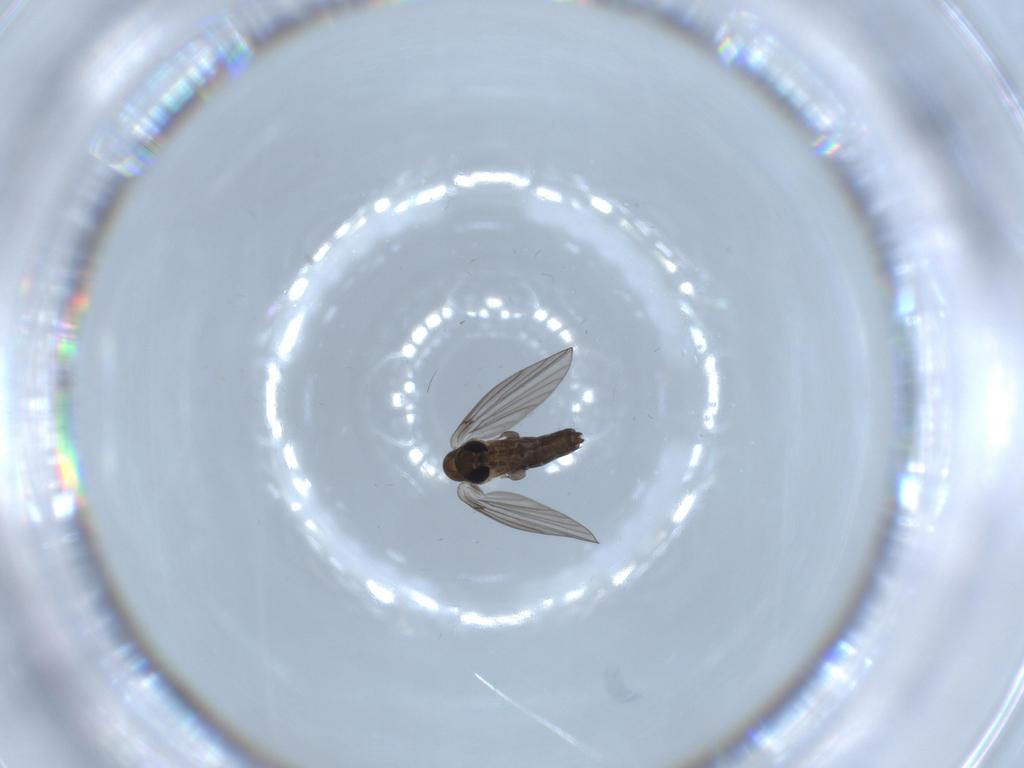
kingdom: Animalia
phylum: Arthropoda
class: Insecta
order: Diptera
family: Psychodidae
